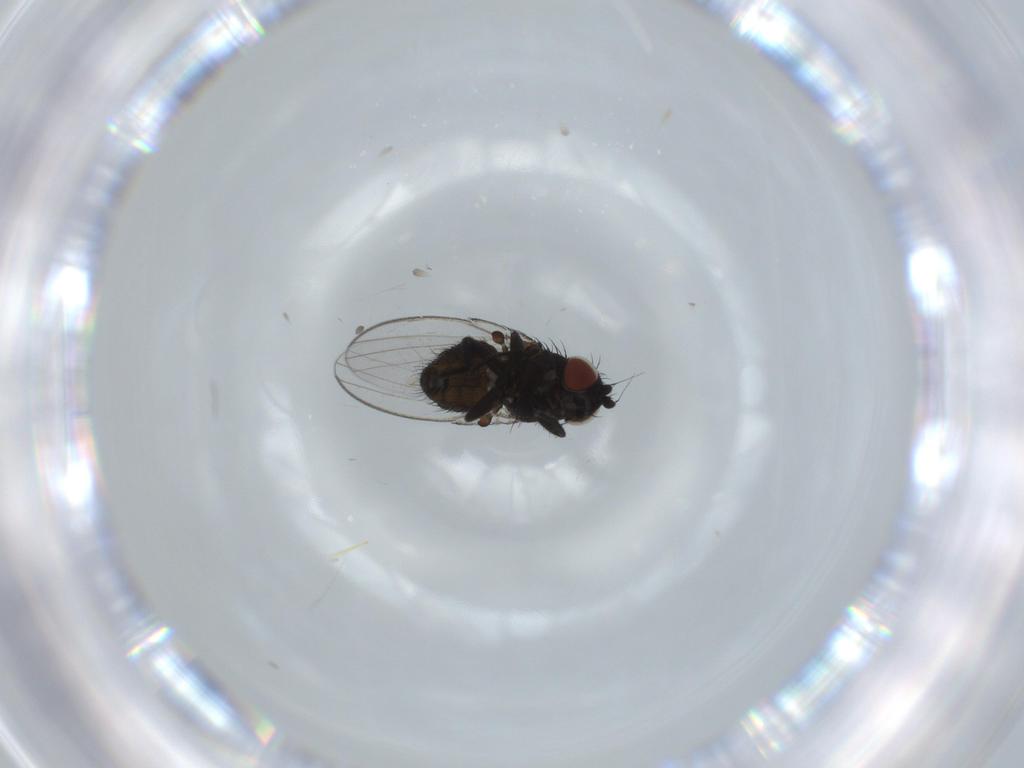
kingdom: Animalia
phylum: Arthropoda
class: Insecta
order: Diptera
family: Milichiidae
